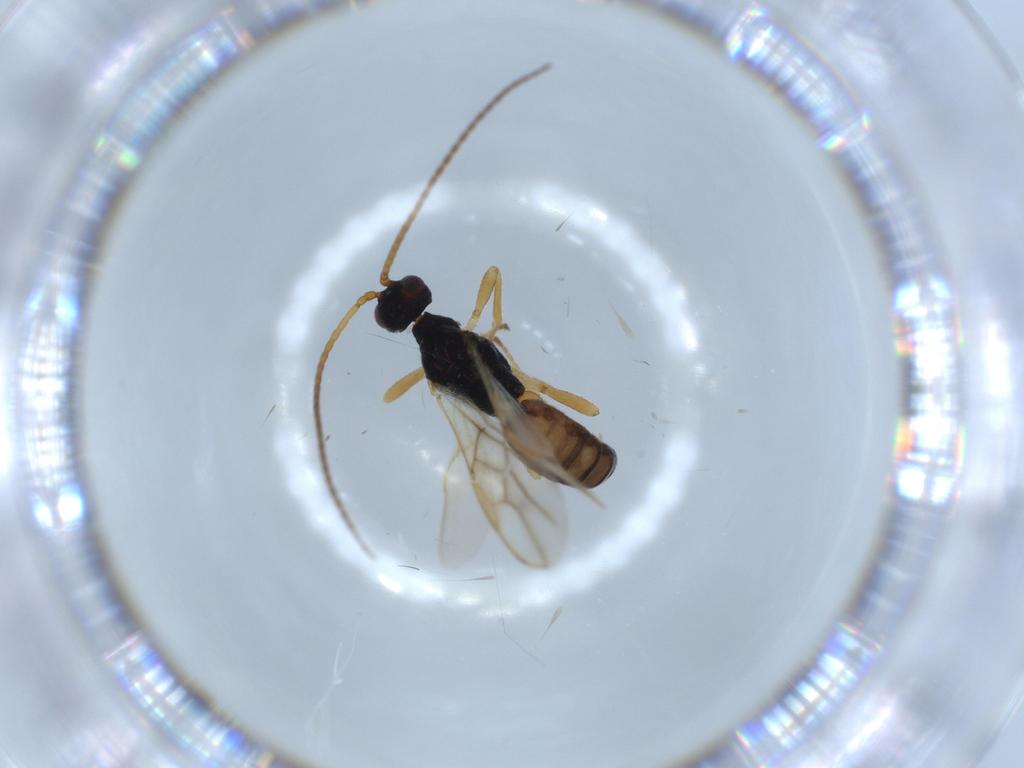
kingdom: Animalia
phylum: Arthropoda
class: Insecta
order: Hymenoptera
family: Braconidae
